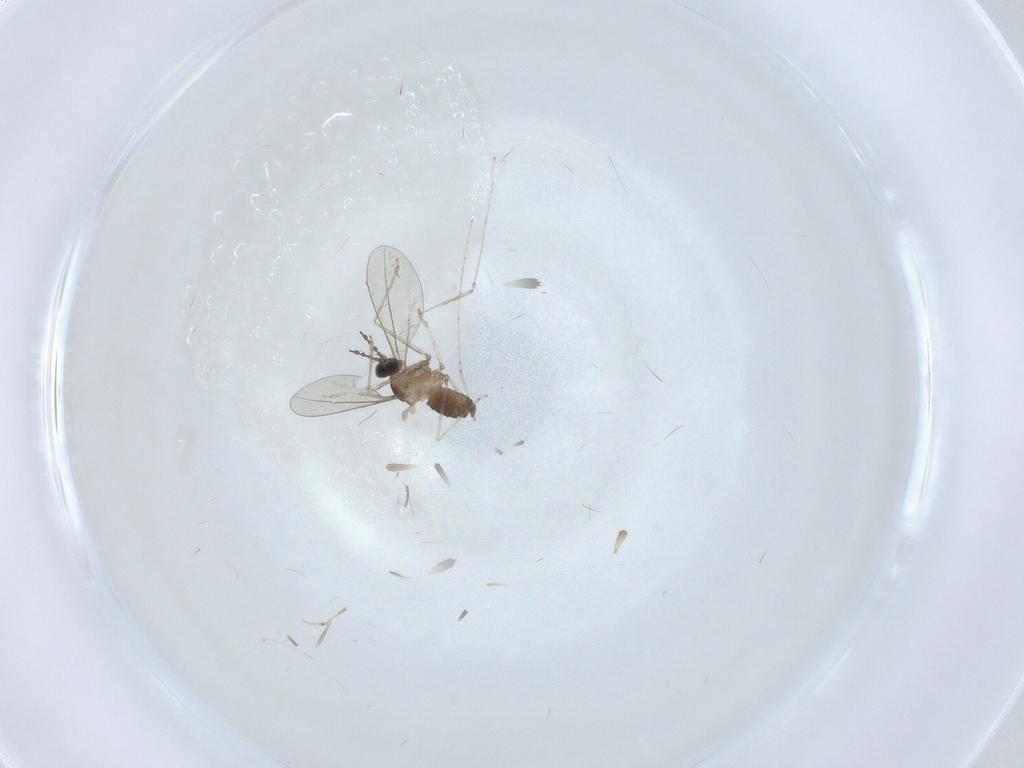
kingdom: Animalia
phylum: Arthropoda
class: Insecta
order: Diptera
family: Cecidomyiidae
